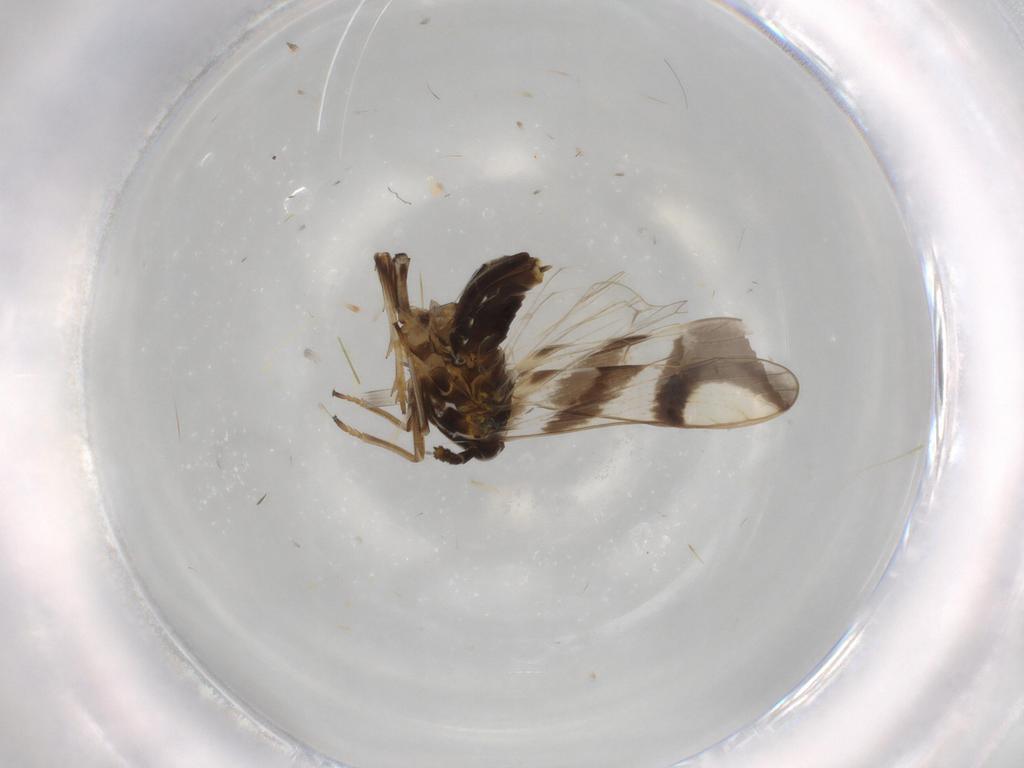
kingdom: Animalia
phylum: Arthropoda
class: Insecta
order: Hemiptera
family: Delphacidae
